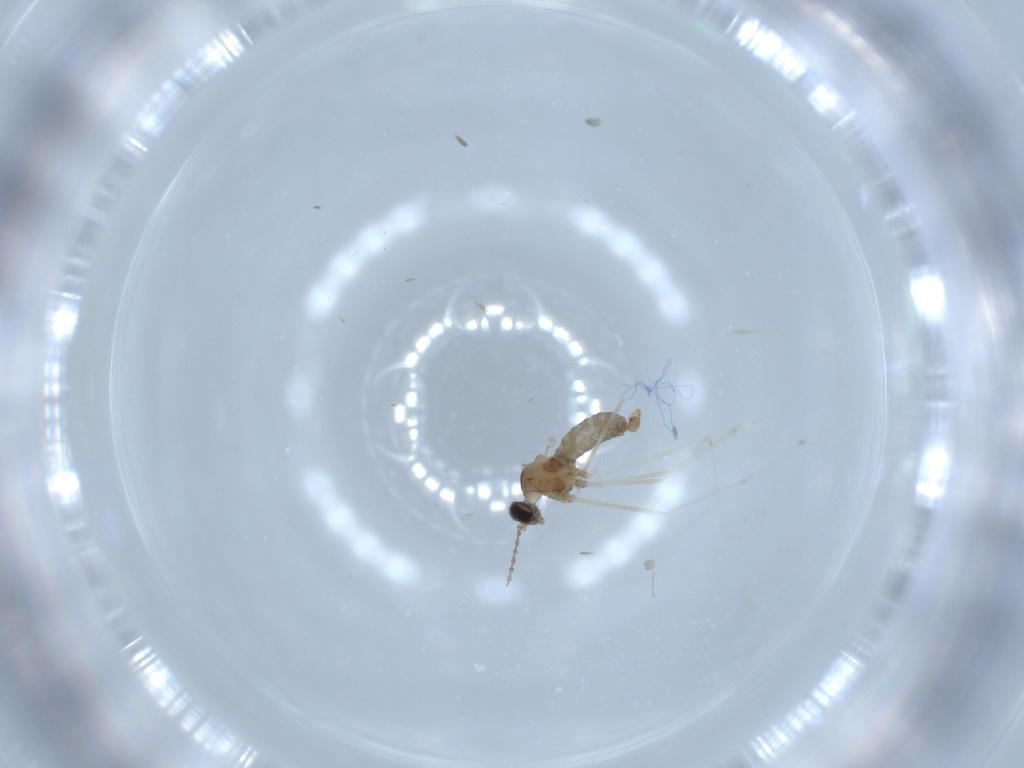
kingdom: Animalia
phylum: Arthropoda
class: Insecta
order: Diptera
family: Cecidomyiidae
